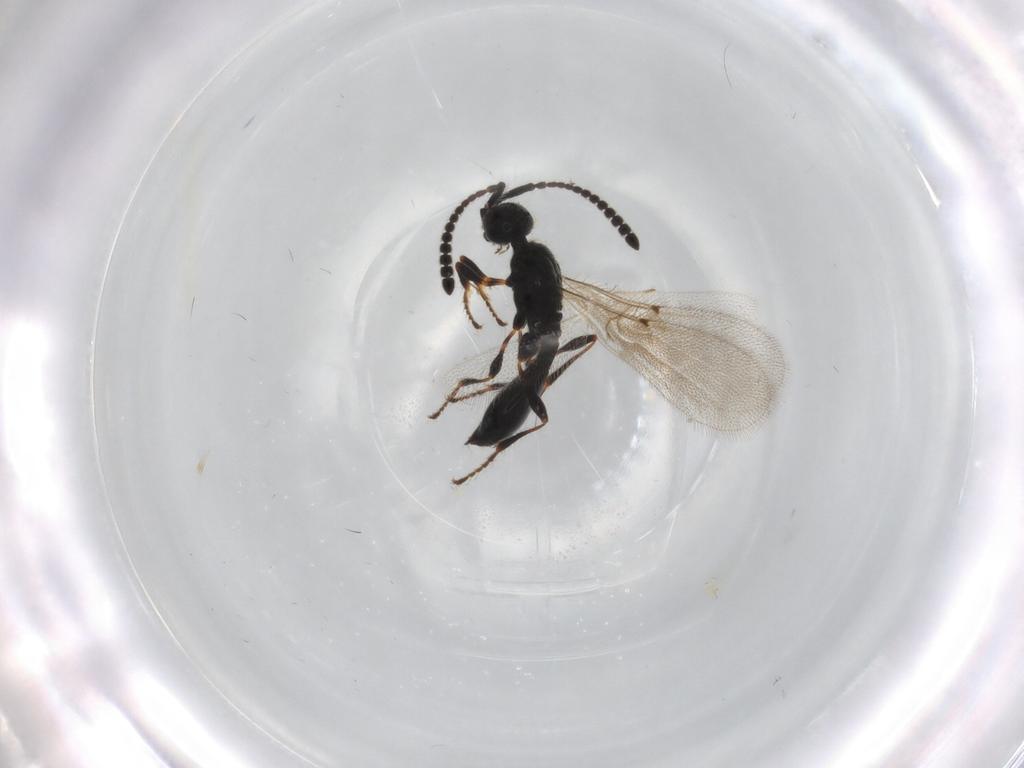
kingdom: Animalia
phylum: Arthropoda
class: Insecta
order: Hymenoptera
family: Diapriidae
